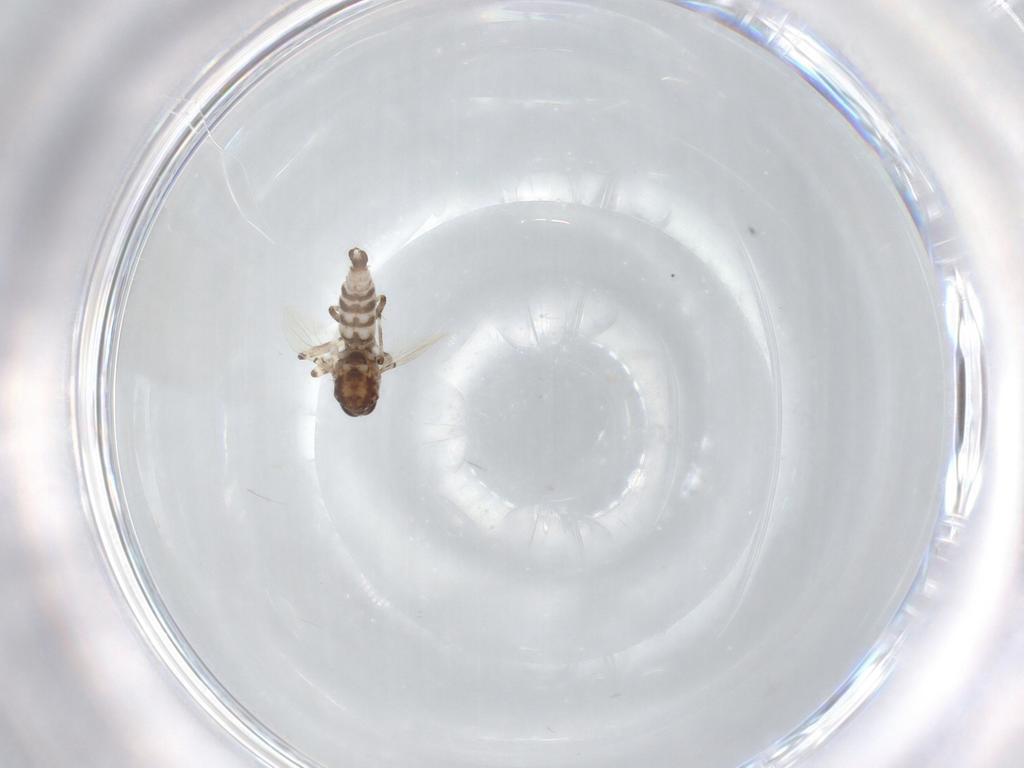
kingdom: Animalia
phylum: Arthropoda
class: Insecta
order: Diptera
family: Ceratopogonidae
